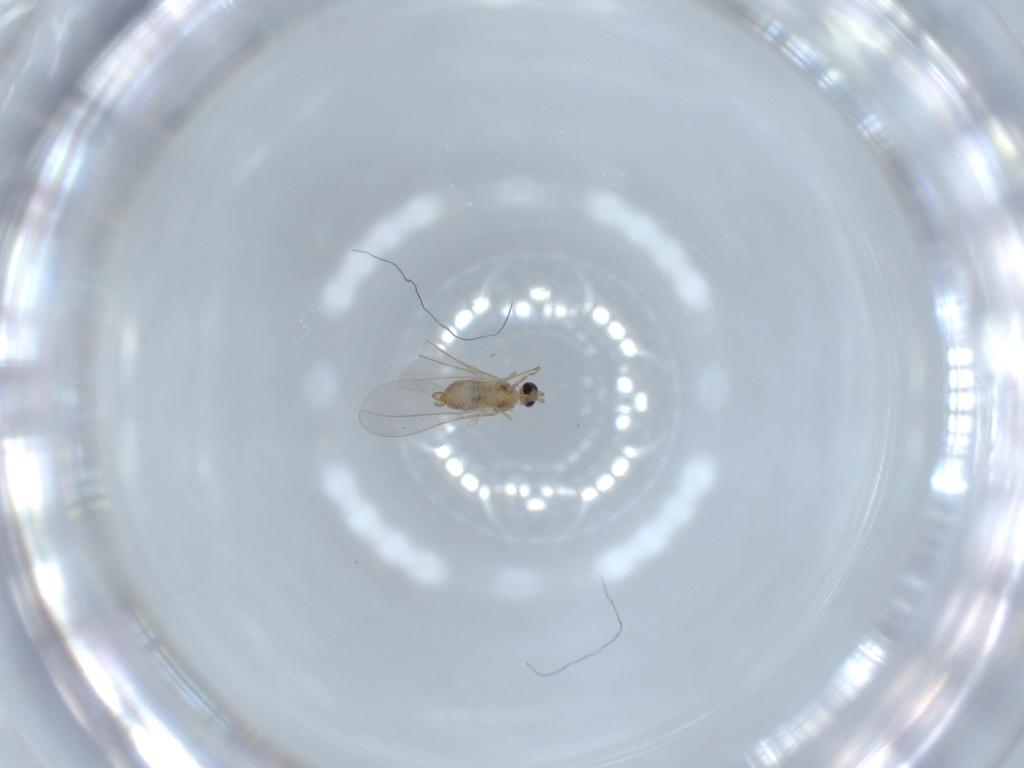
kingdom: Animalia
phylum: Arthropoda
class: Insecta
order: Diptera
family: Cecidomyiidae
